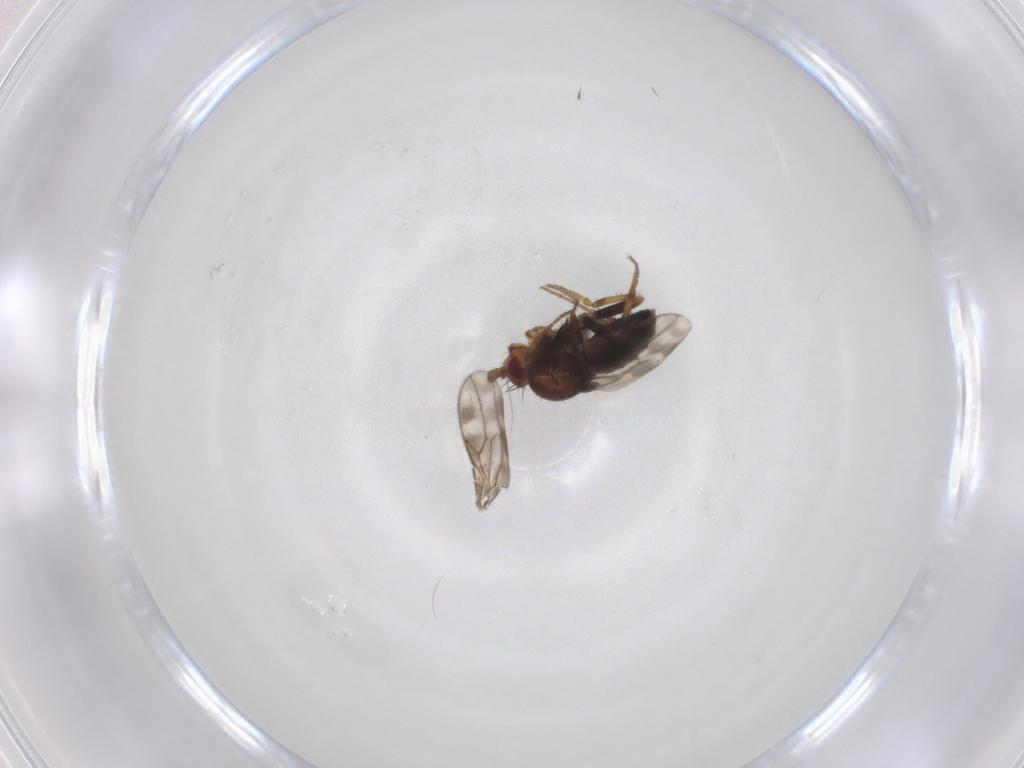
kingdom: Animalia
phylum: Arthropoda
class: Insecta
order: Diptera
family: Sphaeroceridae
